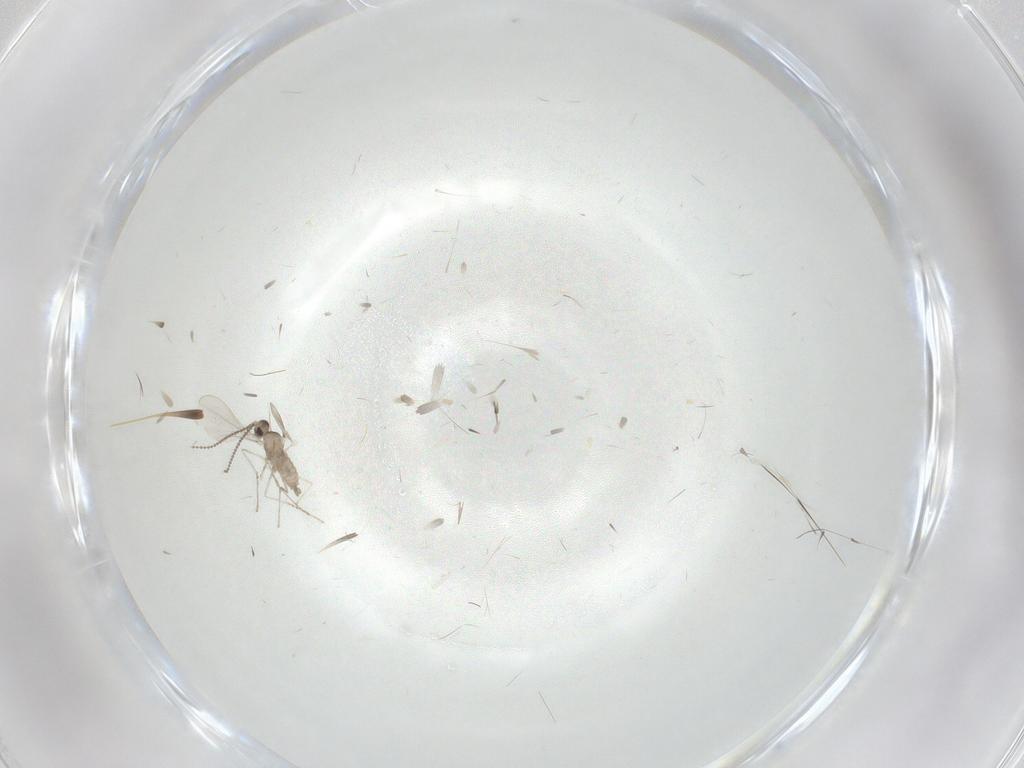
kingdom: Animalia
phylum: Arthropoda
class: Insecta
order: Diptera
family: Cecidomyiidae
